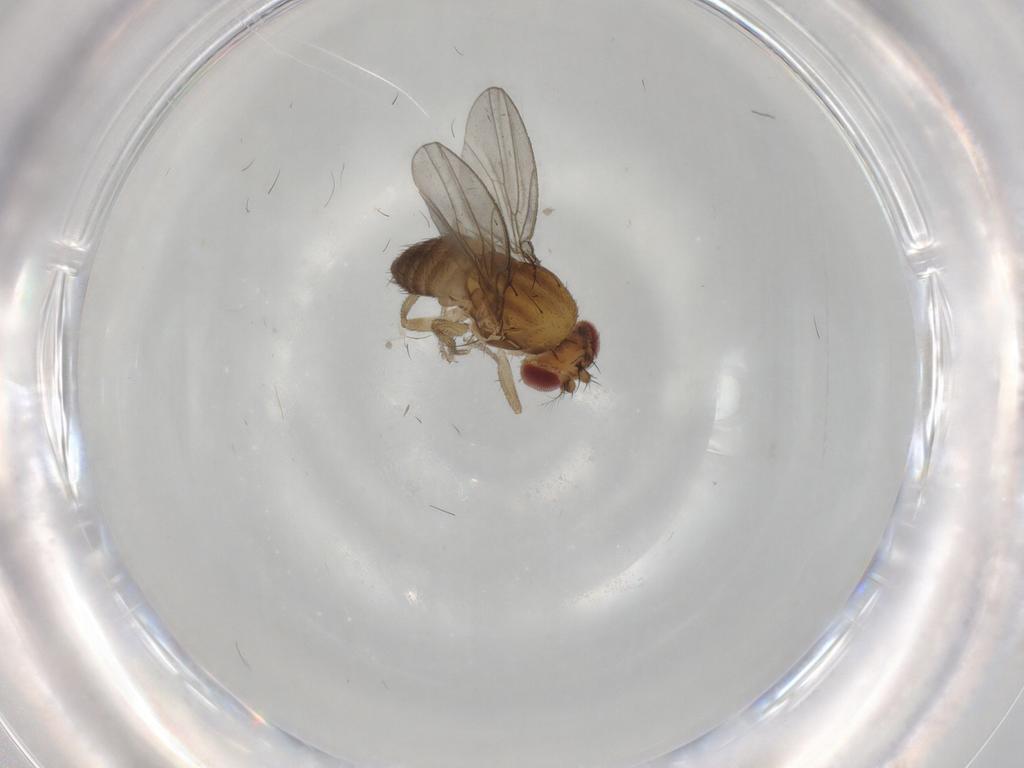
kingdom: Animalia
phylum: Arthropoda
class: Insecta
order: Diptera
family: Drosophilidae
